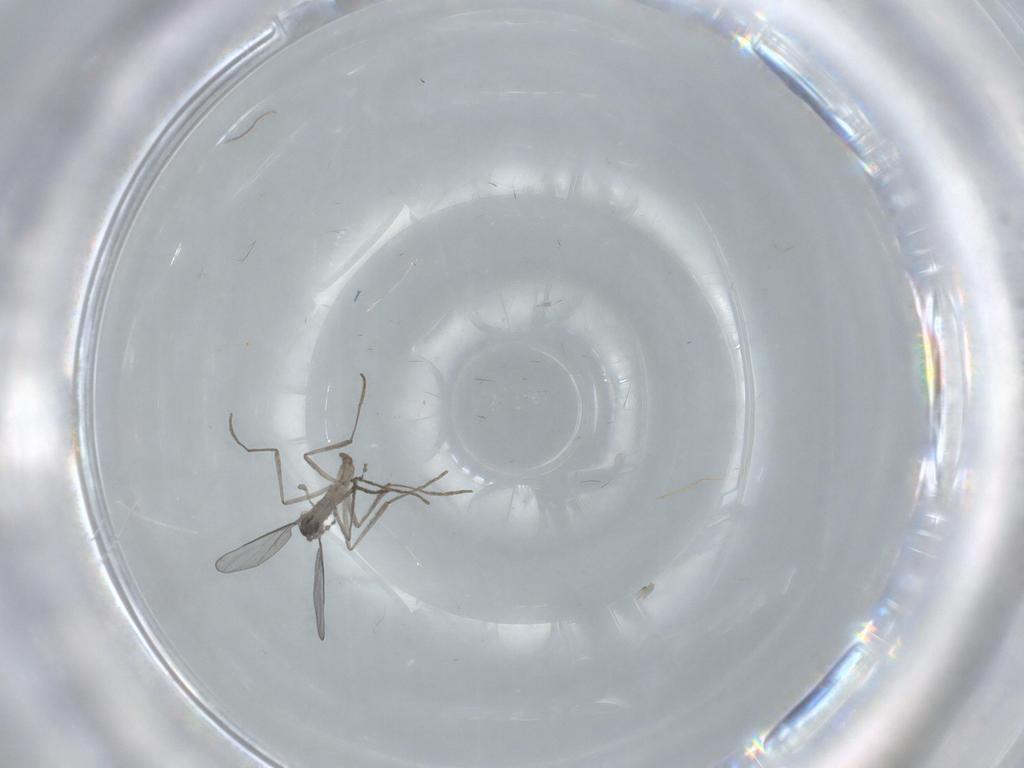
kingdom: Animalia
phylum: Arthropoda
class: Insecta
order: Diptera
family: Cecidomyiidae
